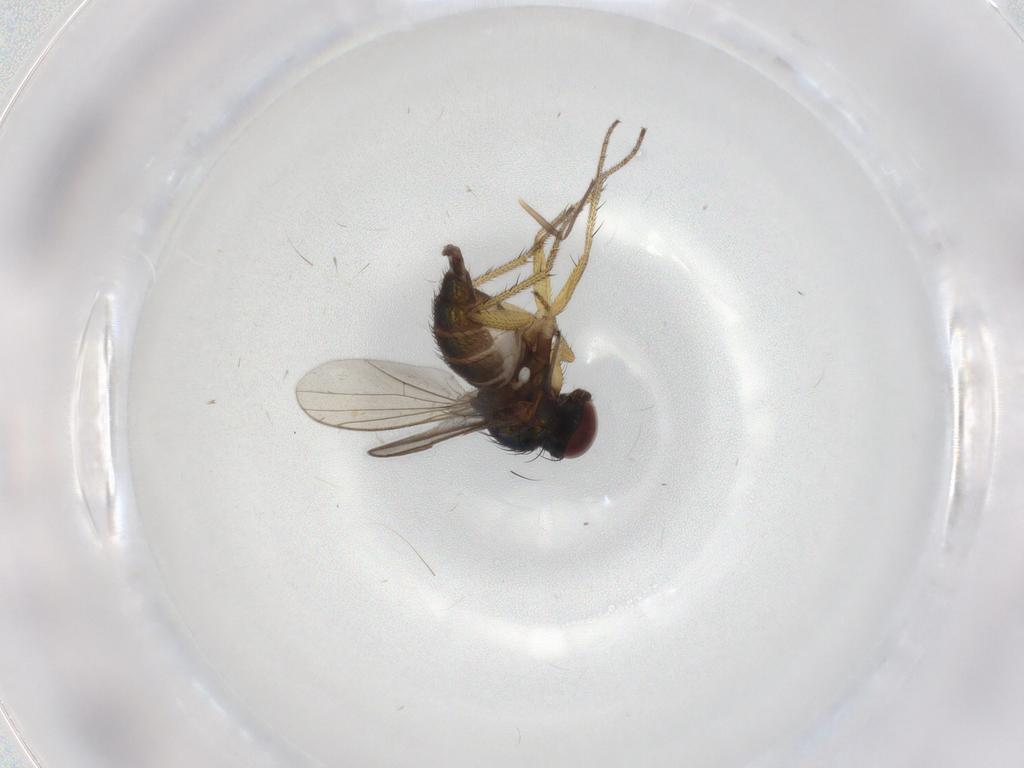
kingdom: Animalia
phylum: Arthropoda
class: Insecta
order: Diptera
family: Sciaridae
